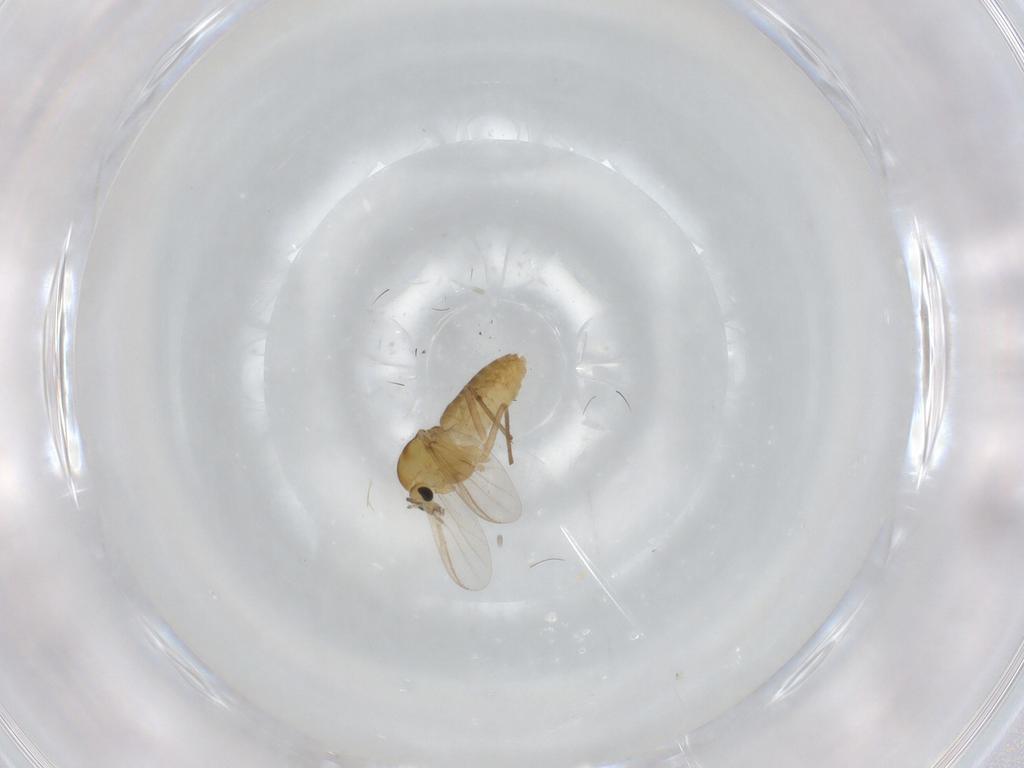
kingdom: Animalia
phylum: Arthropoda
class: Insecta
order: Diptera
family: Chironomidae
